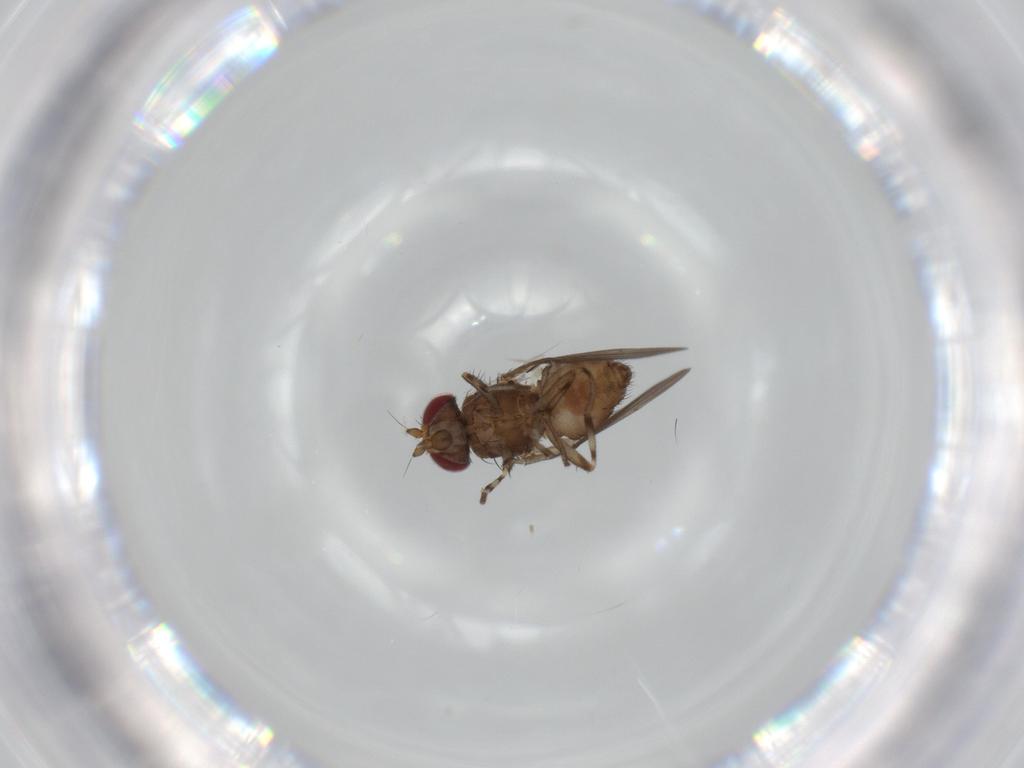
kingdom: Animalia
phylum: Arthropoda
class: Insecta
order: Diptera
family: Heleomyzidae
